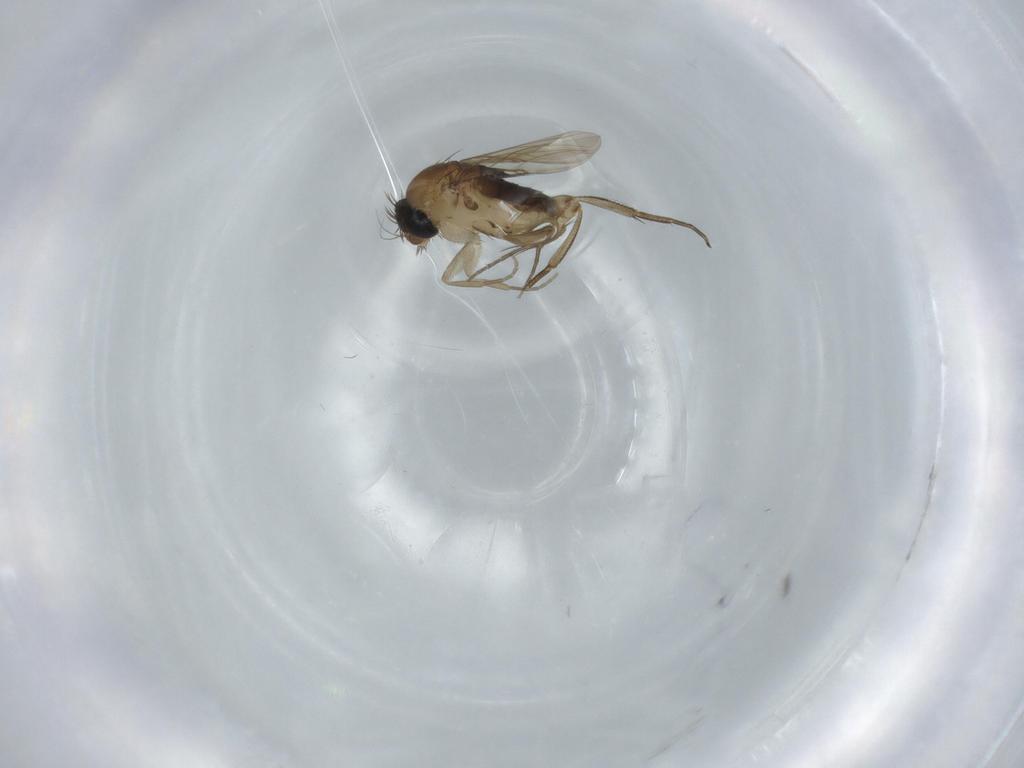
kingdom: Animalia
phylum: Arthropoda
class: Insecta
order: Diptera
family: Phoridae
